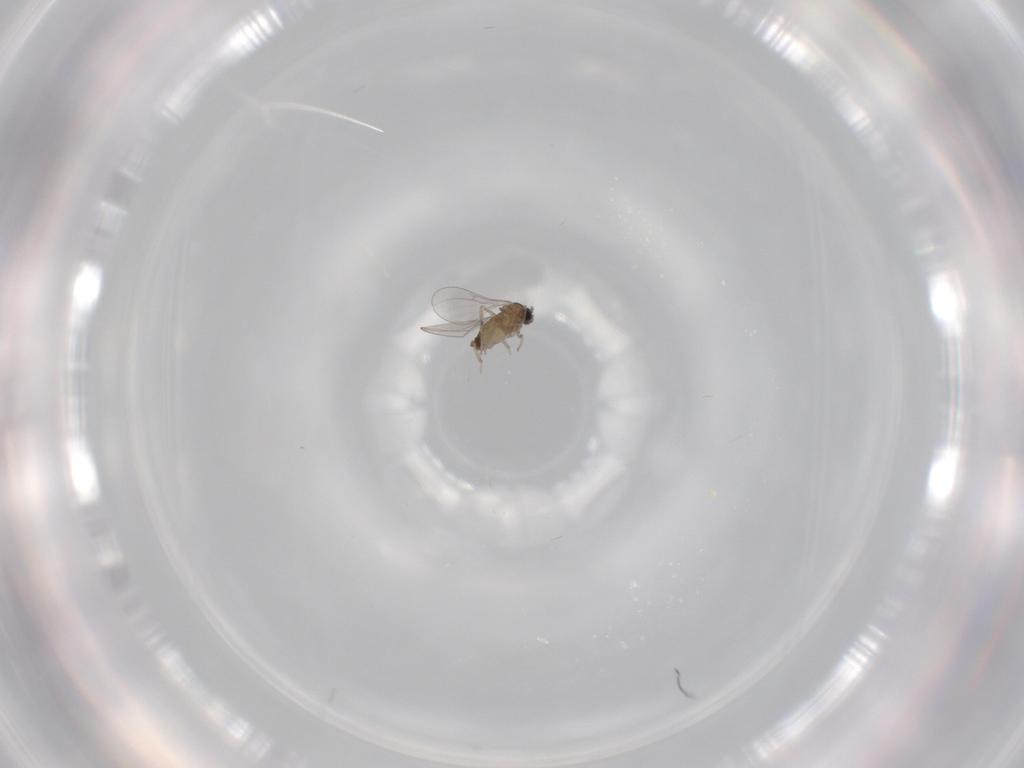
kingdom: Animalia
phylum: Arthropoda
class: Insecta
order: Diptera
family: Cecidomyiidae
